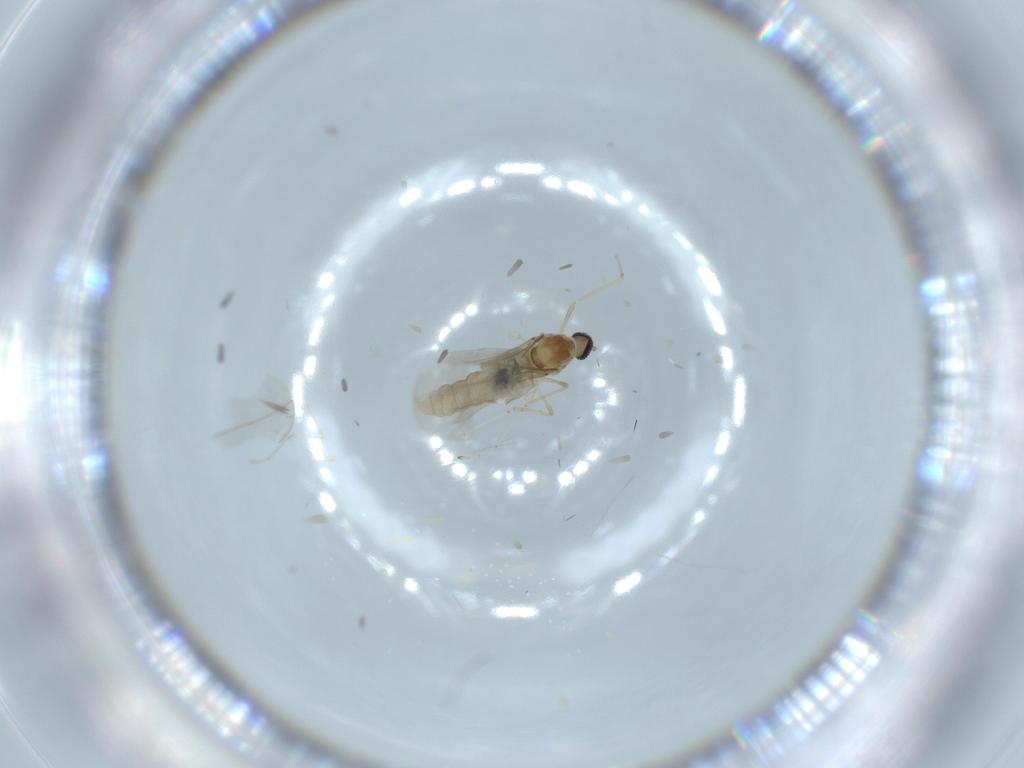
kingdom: Animalia
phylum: Arthropoda
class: Insecta
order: Diptera
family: Cecidomyiidae
